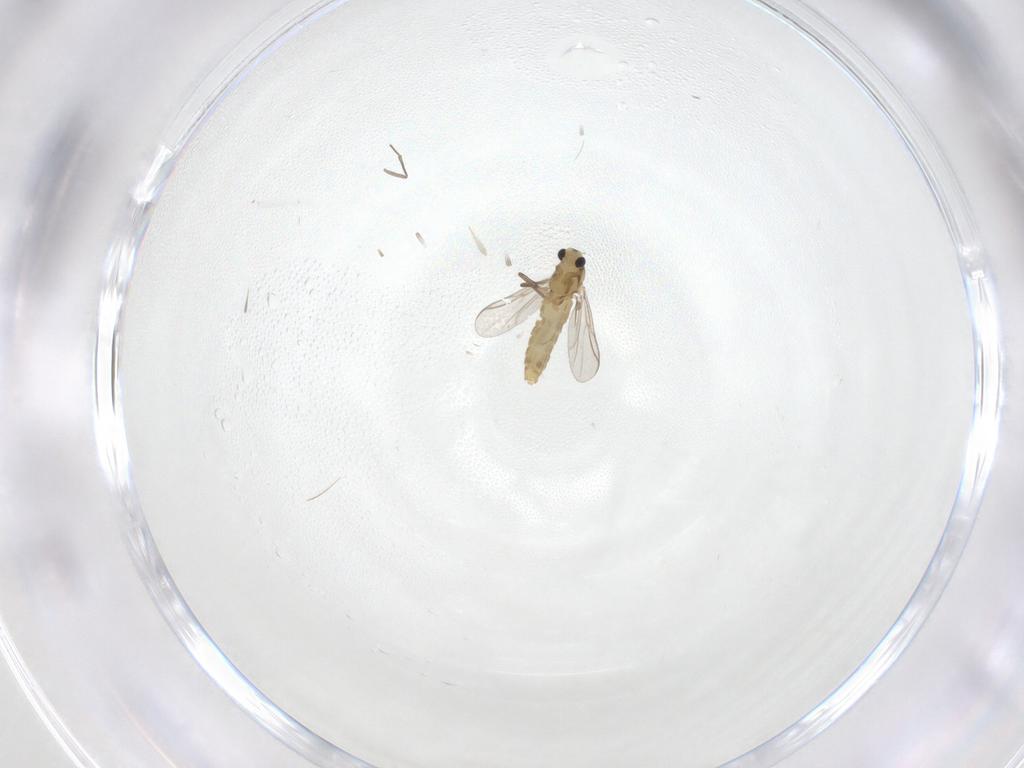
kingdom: Animalia
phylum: Arthropoda
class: Insecta
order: Diptera
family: Chironomidae
